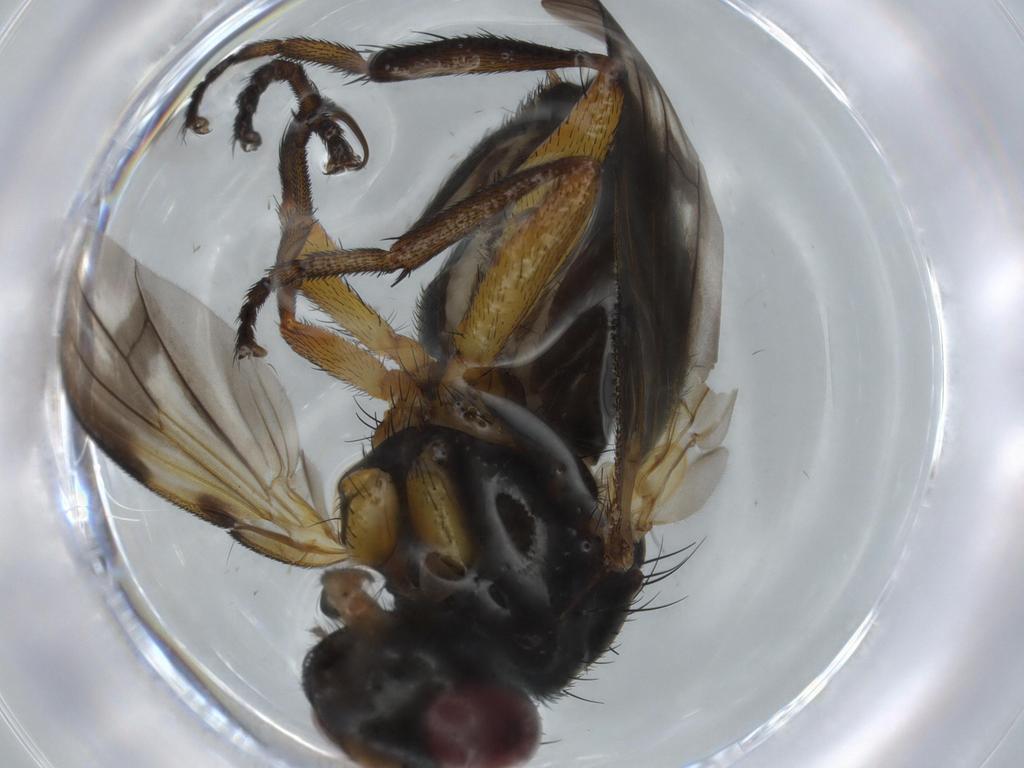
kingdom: Animalia
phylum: Arthropoda
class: Insecta
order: Diptera
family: Calliphoridae
